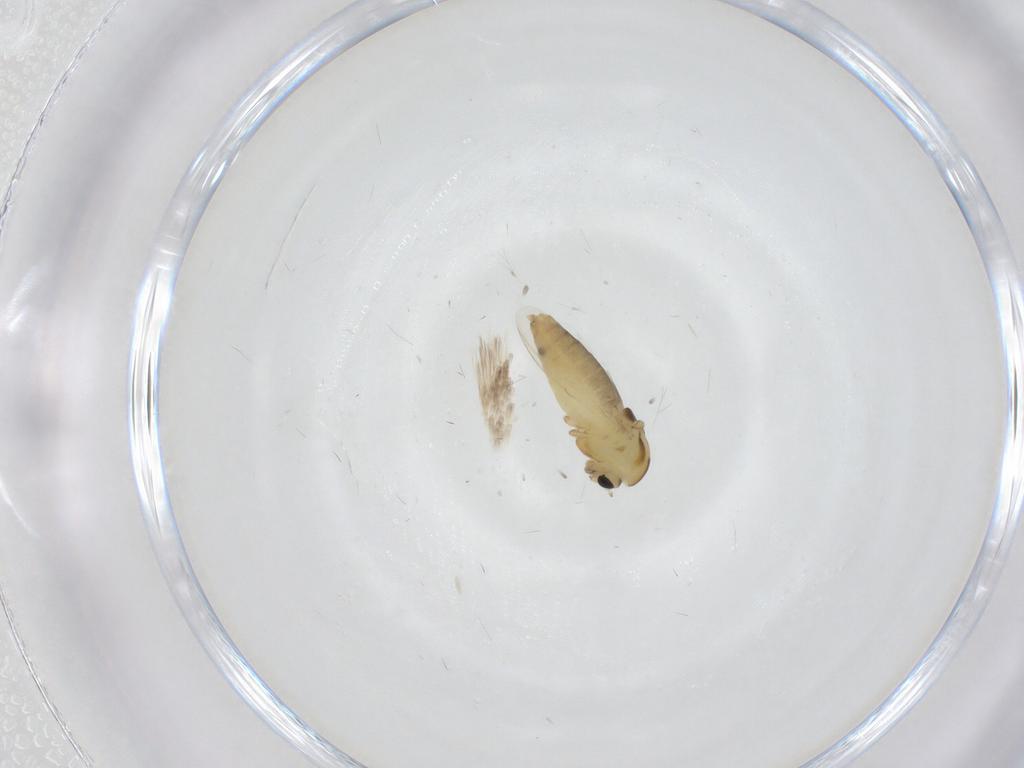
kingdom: Animalia
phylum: Arthropoda
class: Insecta
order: Diptera
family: Chironomidae
